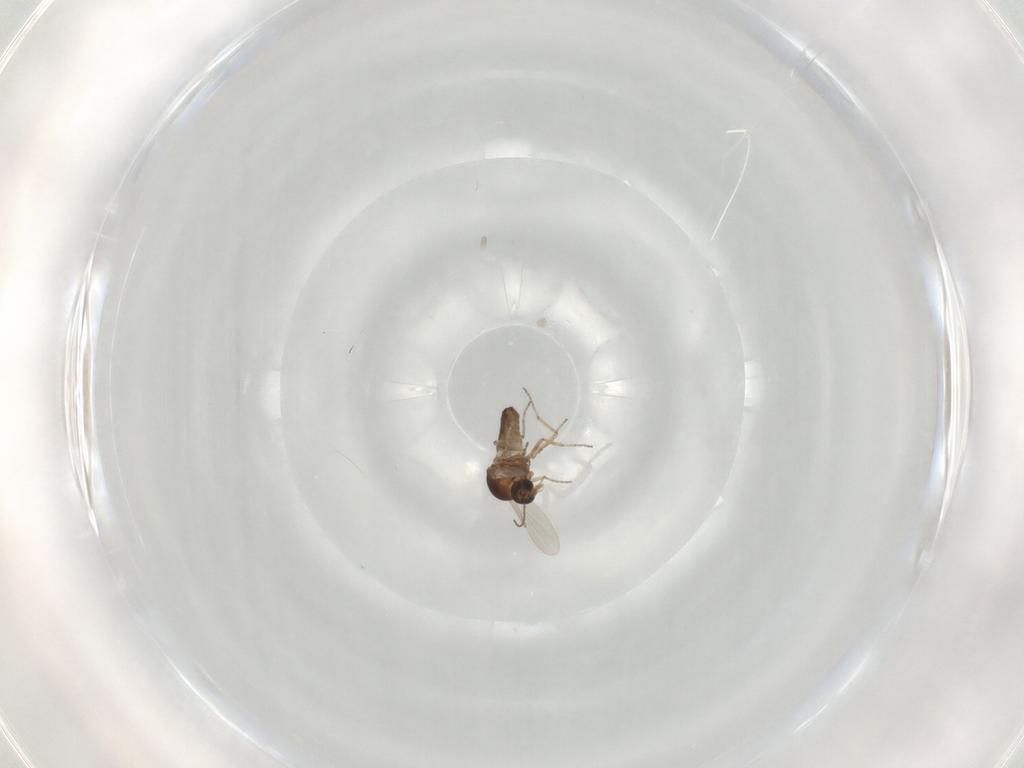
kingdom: Animalia
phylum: Arthropoda
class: Insecta
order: Diptera
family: Ceratopogonidae
